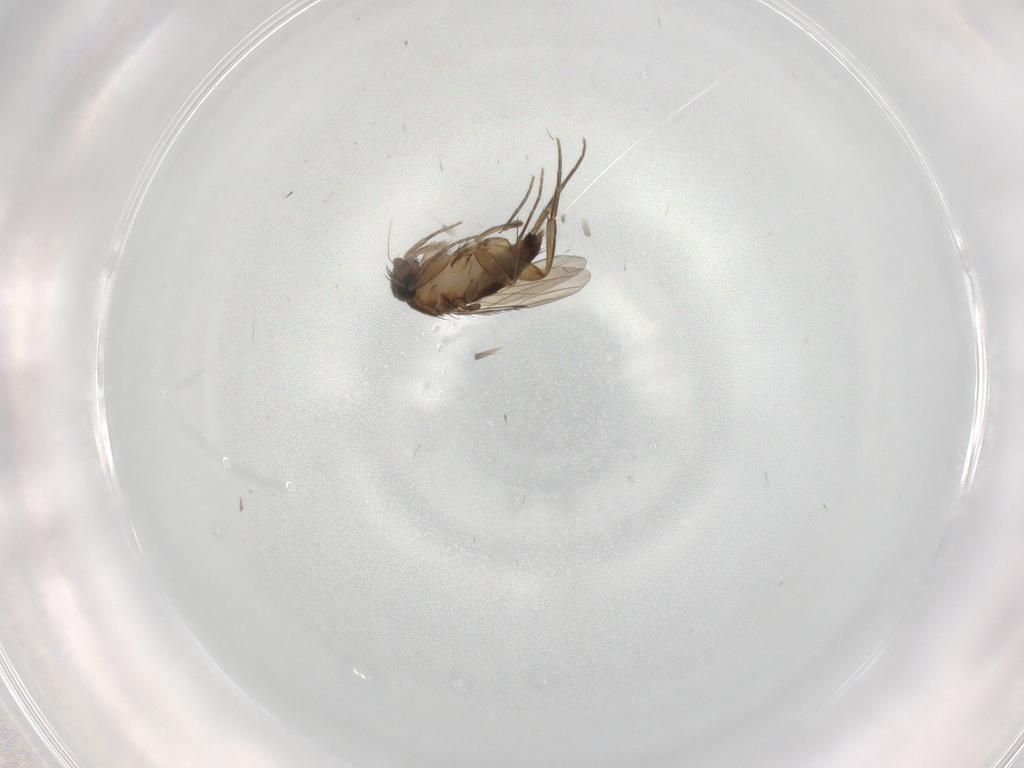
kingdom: Animalia
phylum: Arthropoda
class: Insecta
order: Diptera
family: Phoridae
